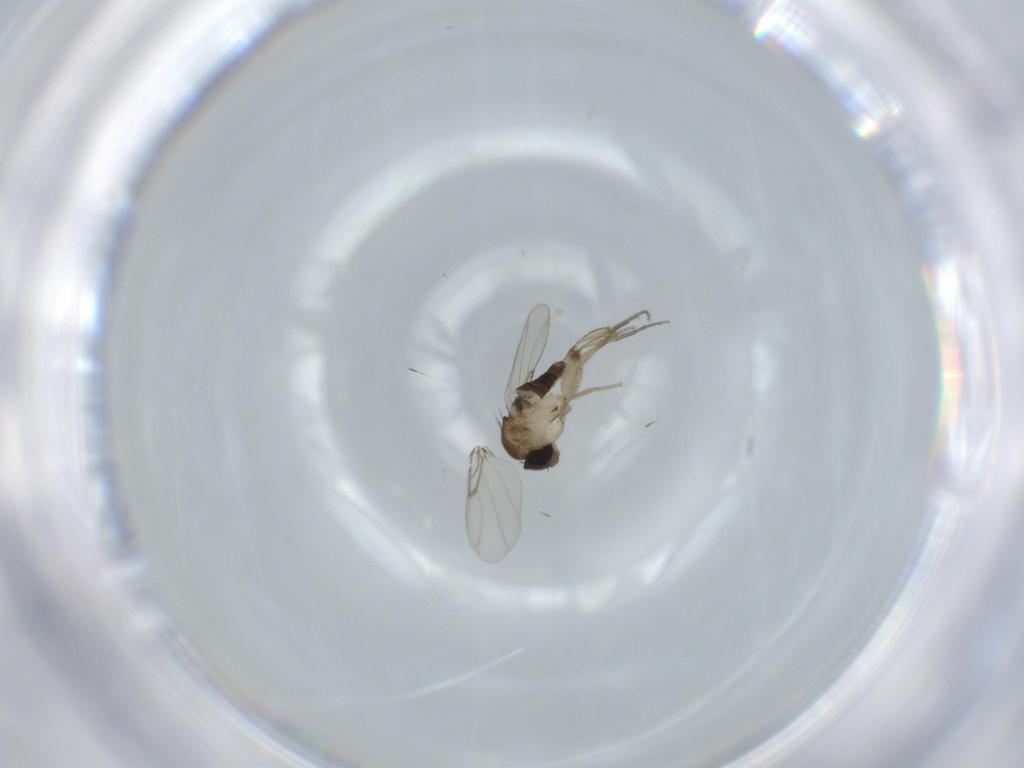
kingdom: Animalia
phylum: Arthropoda
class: Insecta
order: Diptera
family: Phoridae
